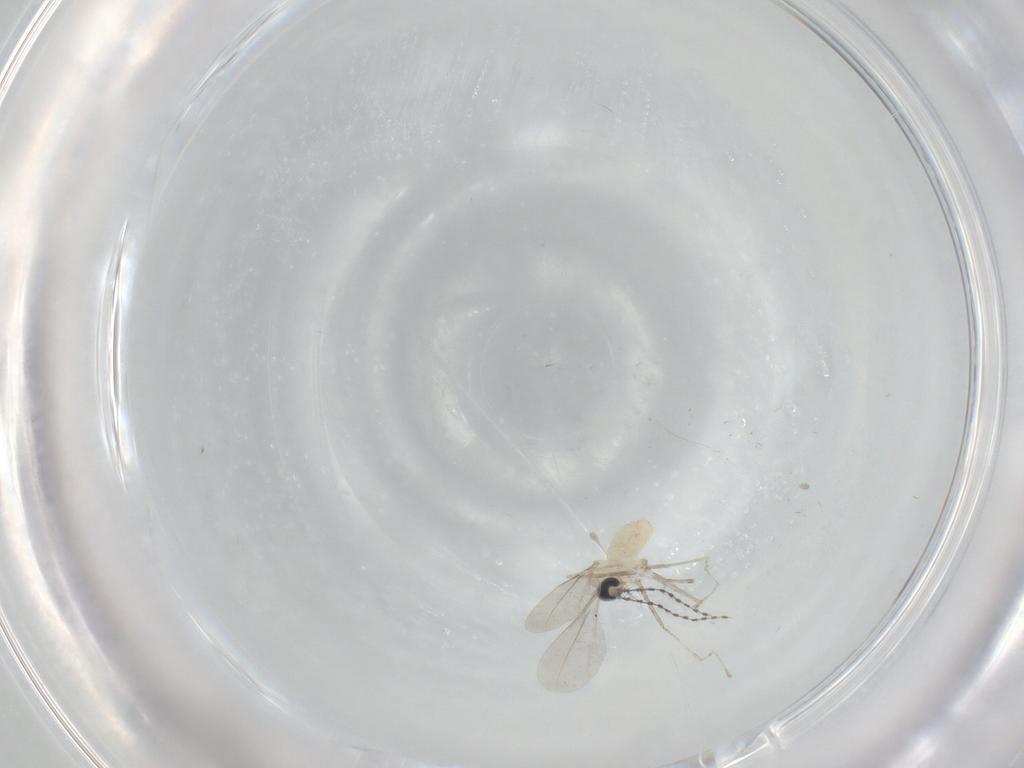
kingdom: Animalia
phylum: Arthropoda
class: Insecta
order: Diptera
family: Cecidomyiidae
